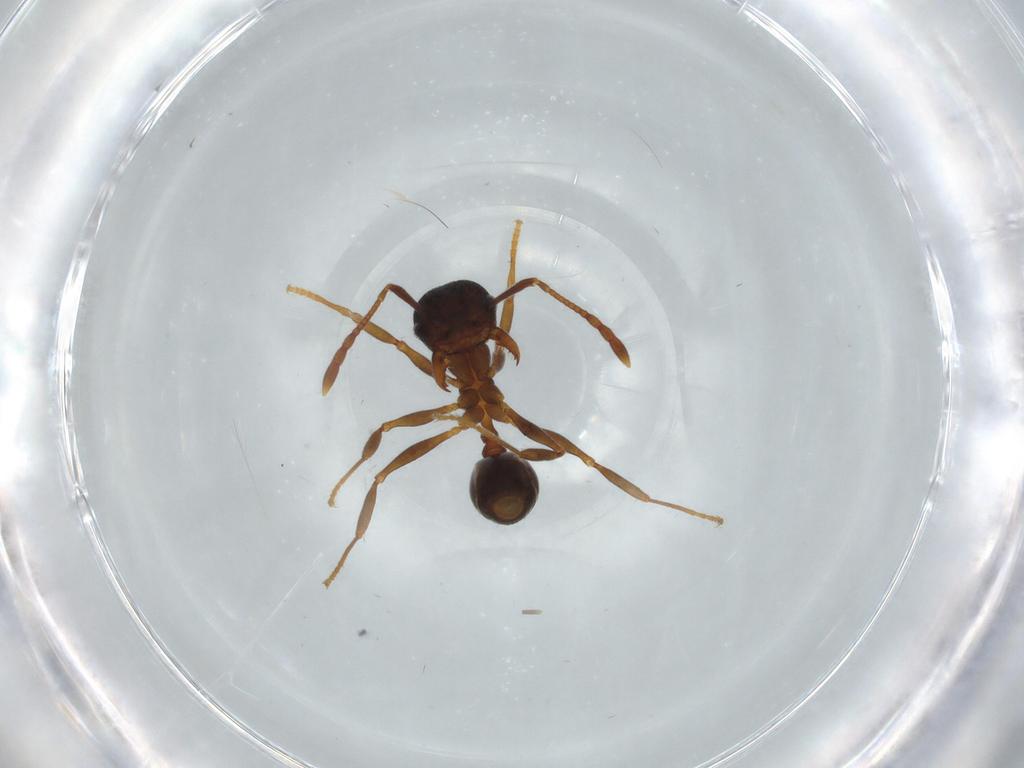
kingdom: Animalia
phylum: Arthropoda
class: Insecta
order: Hymenoptera
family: Formicidae
